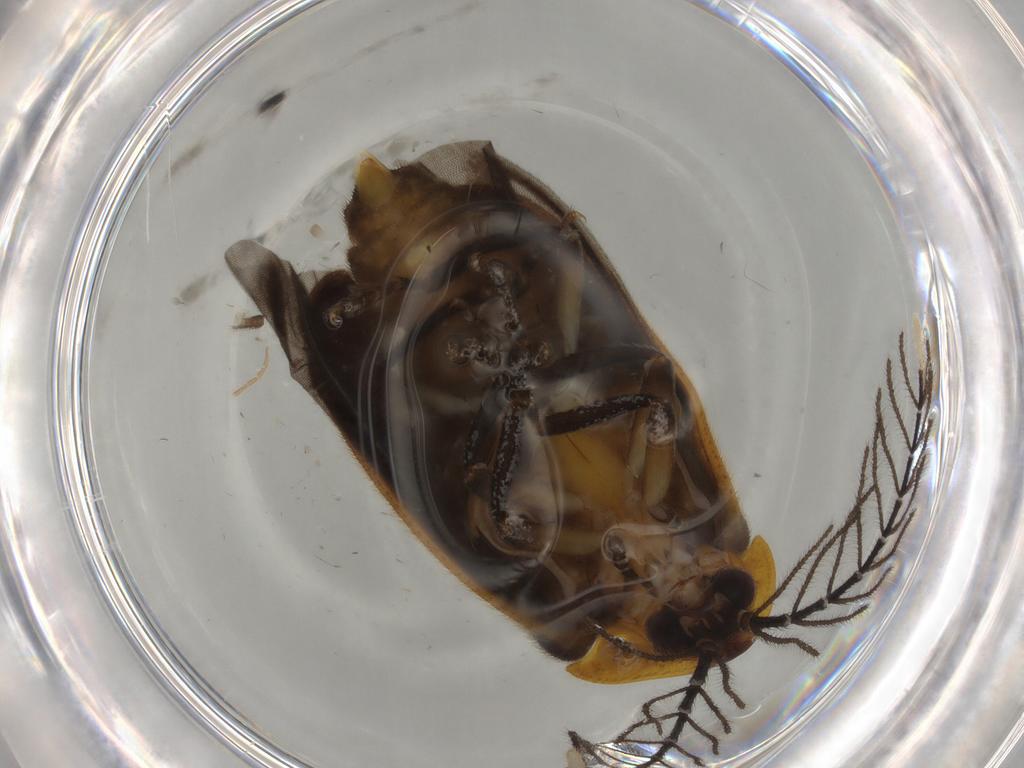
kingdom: Animalia
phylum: Arthropoda
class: Insecta
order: Coleoptera
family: Lampyridae
